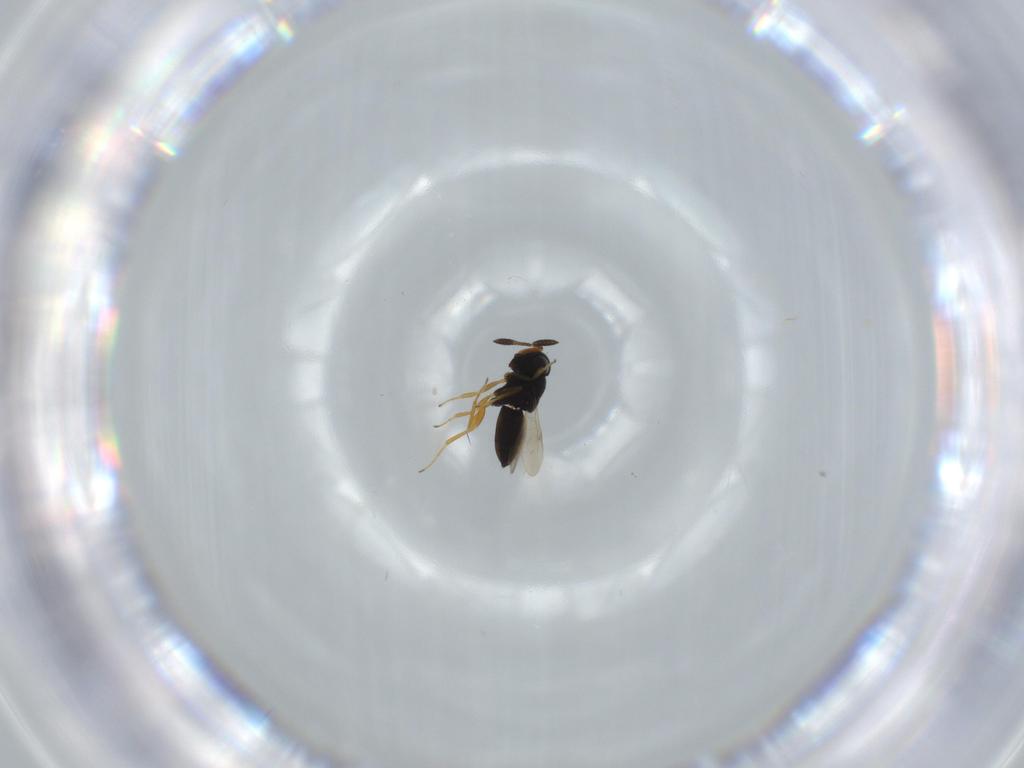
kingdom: Animalia
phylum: Arthropoda
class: Insecta
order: Hymenoptera
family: Scelionidae
